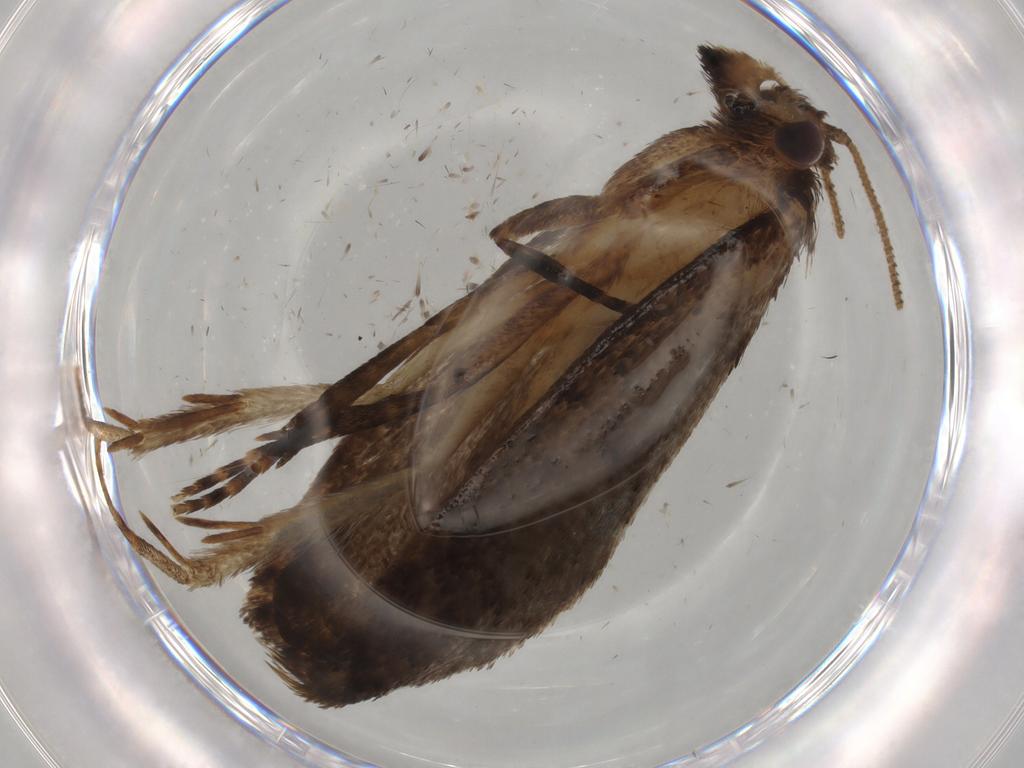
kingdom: Animalia
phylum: Arthropoda
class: Insecta
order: Lepidoptera
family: Tineidae
